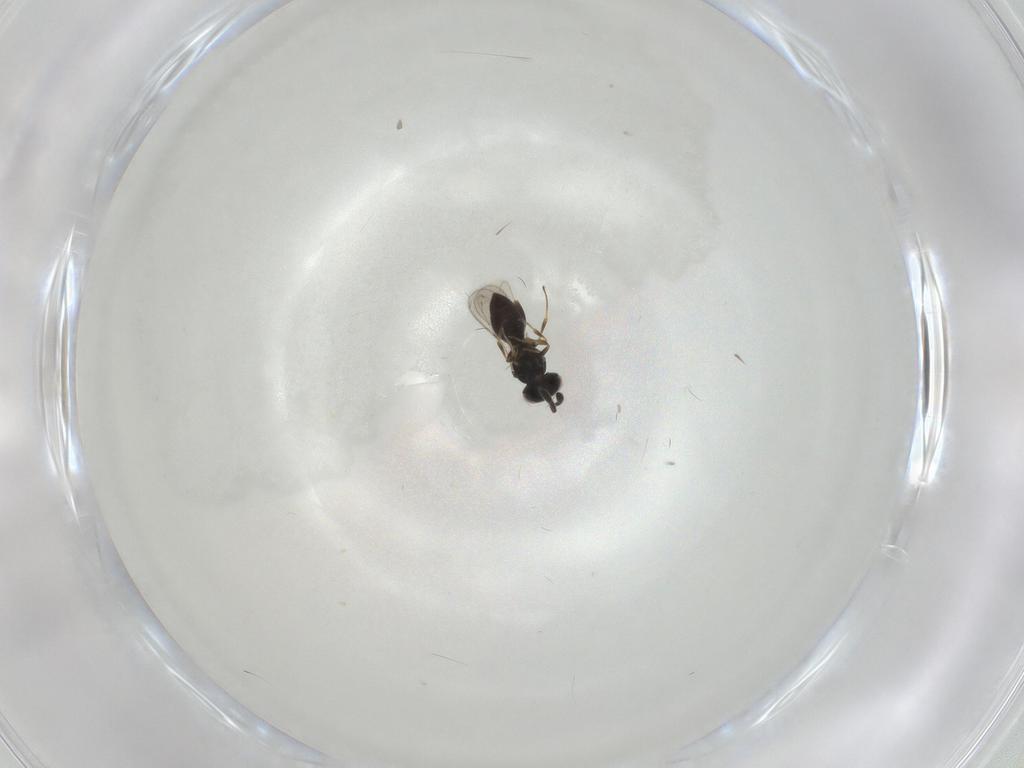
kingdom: Animalia
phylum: Arthropoda
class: Insecta
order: Hymenoptera
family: Scelionidae
